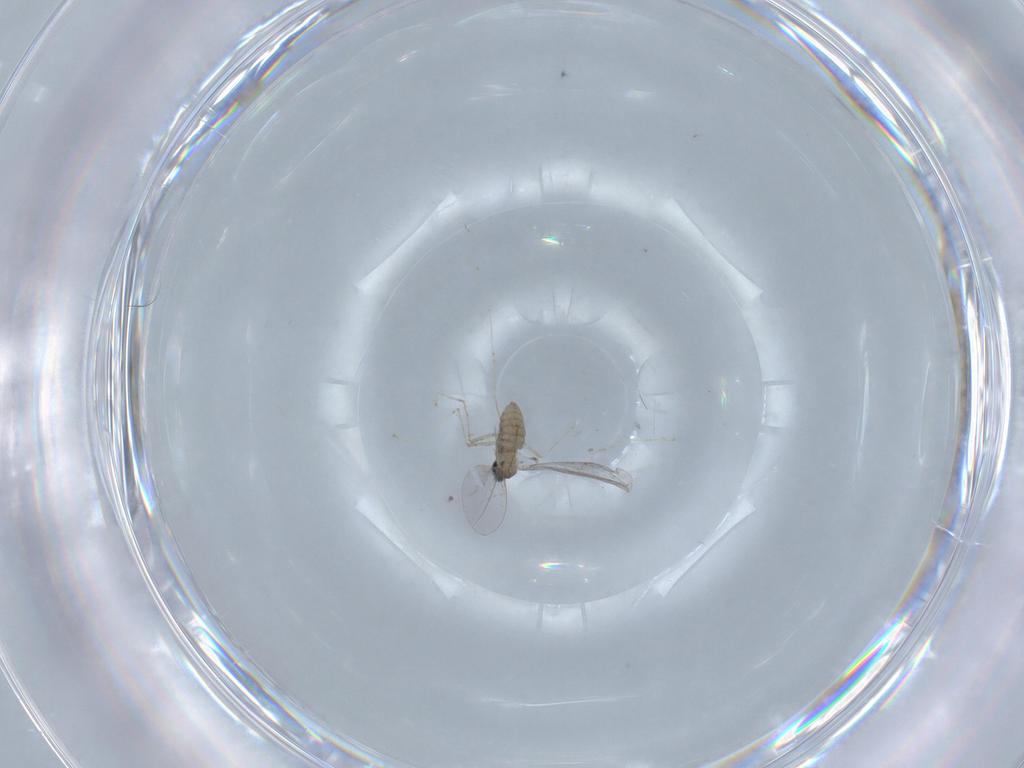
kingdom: Animalia
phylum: Arthropoda
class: Insecta
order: Diptera
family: Cecidomyiidae
